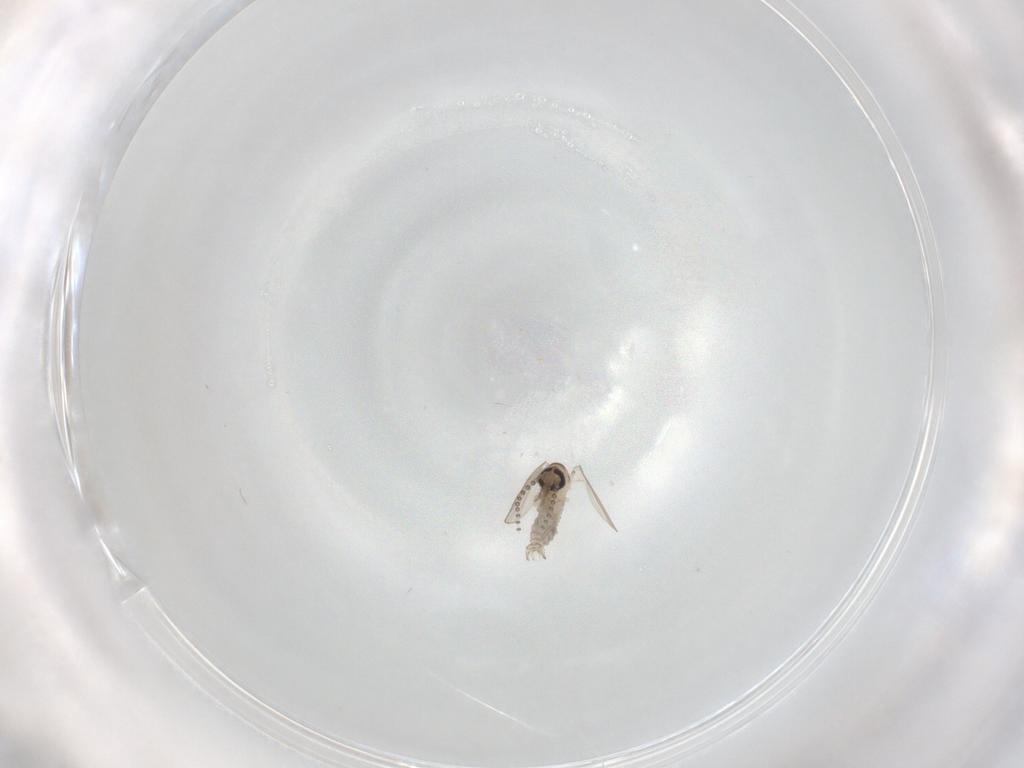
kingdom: Animalia
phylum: Arthropoda
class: Insecta
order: Diptera
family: Psychodidae
